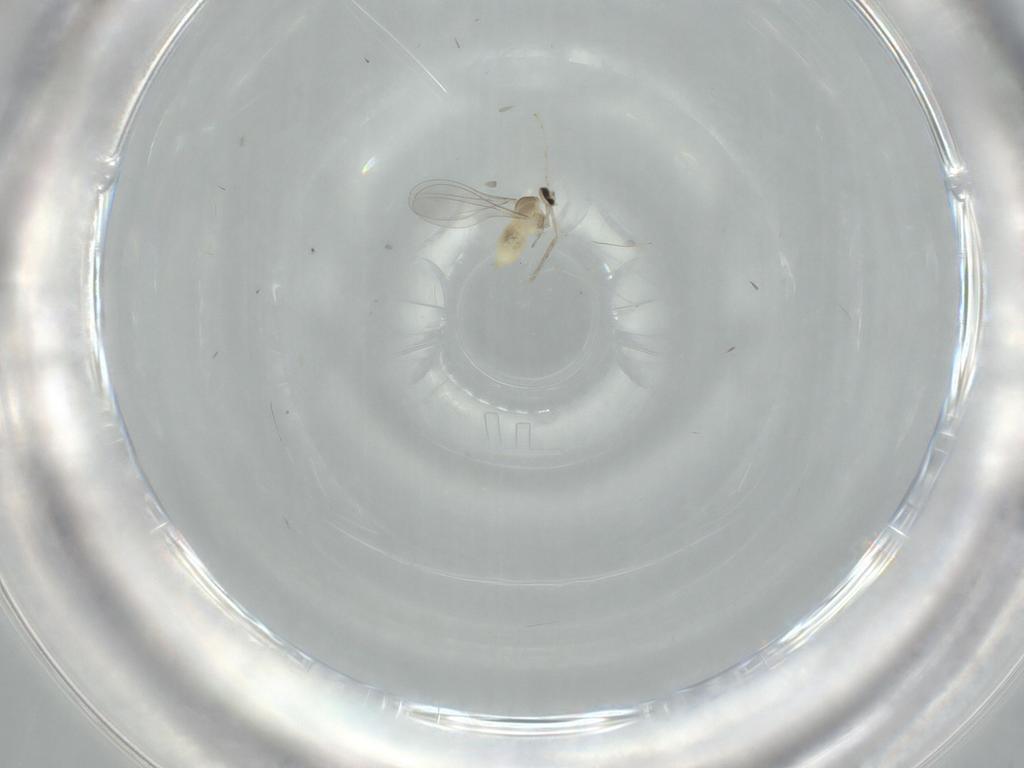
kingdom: Animalia
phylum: Arthropoda
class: Insecta
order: Diptera
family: Cecidomyiidae
